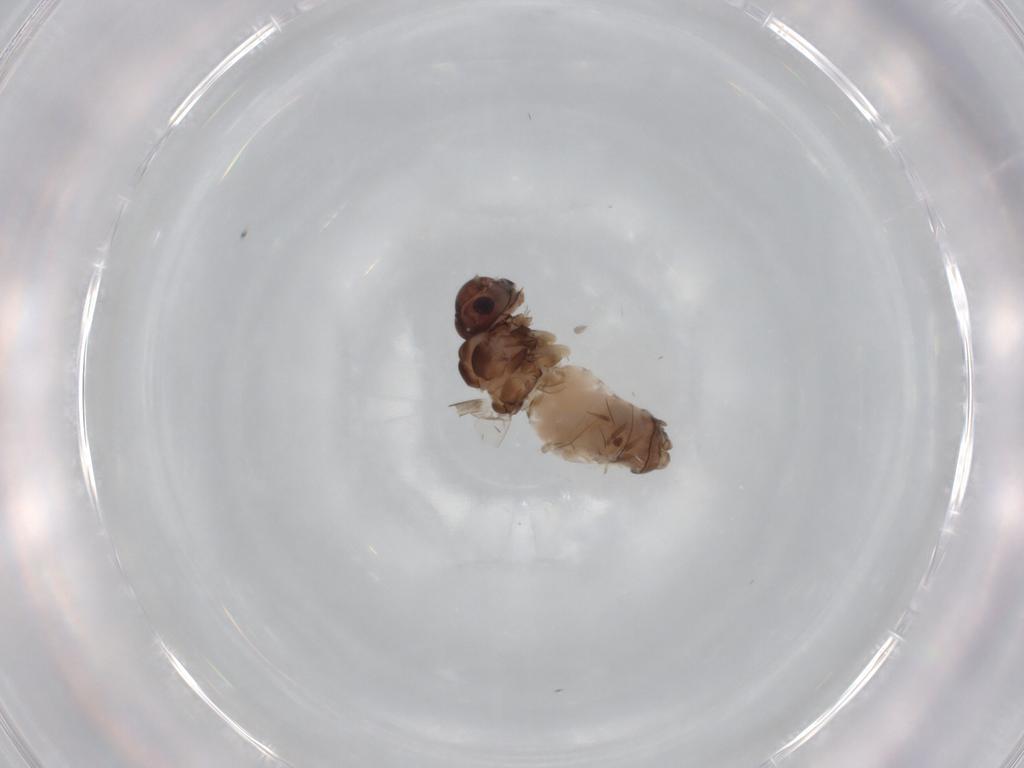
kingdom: Animalia
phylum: Arthropoda
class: Insecta
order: Psocodea
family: Peripsocidae
